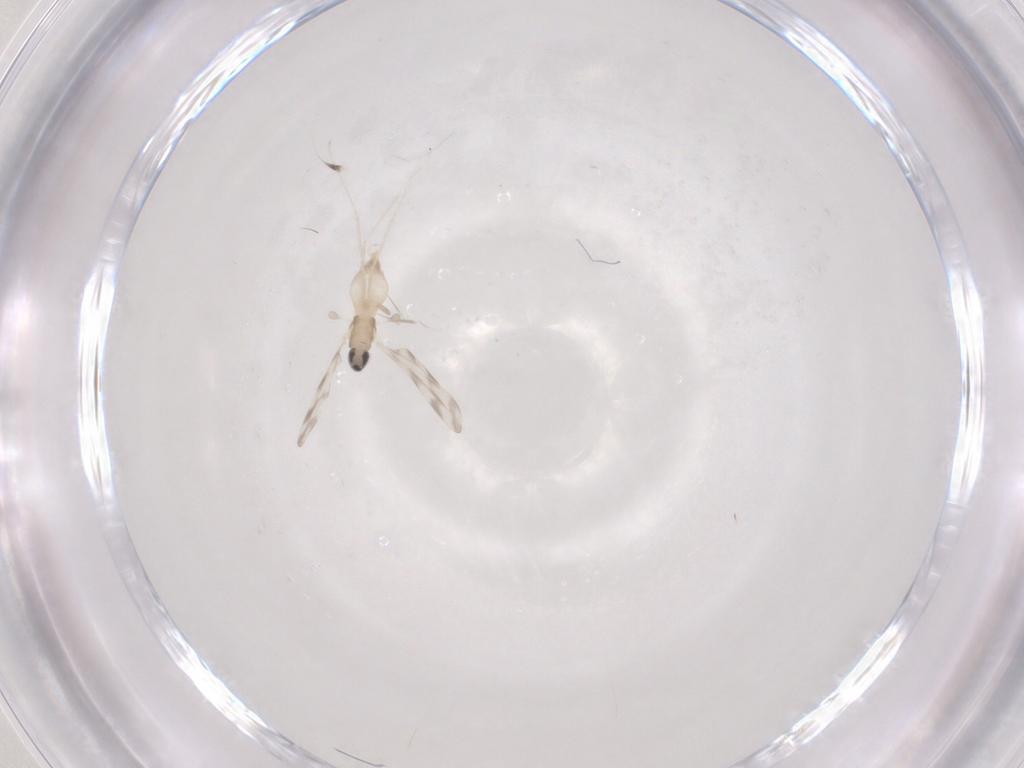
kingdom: Animalia
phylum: Arthropoda
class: Insecta
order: Diptera
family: Cecidomyiidae
